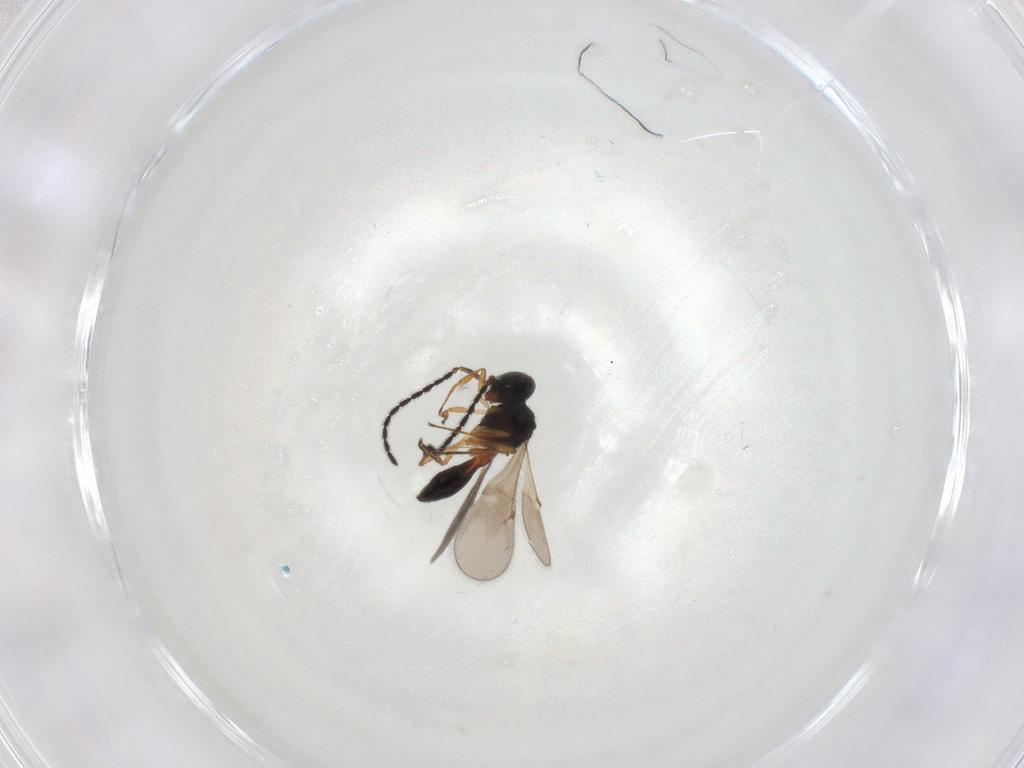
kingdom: Animalia
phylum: Arthropoda
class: Insecta
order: Hymenoptera
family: Scelionidae
